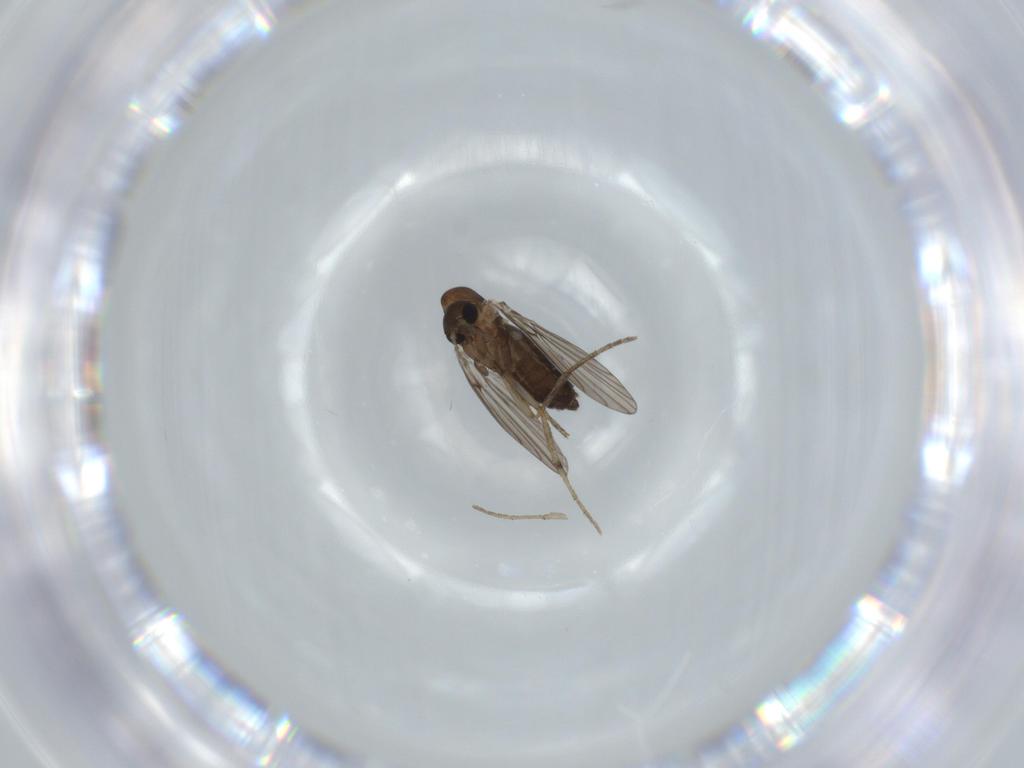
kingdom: Animalia
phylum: Arthropoda
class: Insecta
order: Diptera
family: Psychodidae
